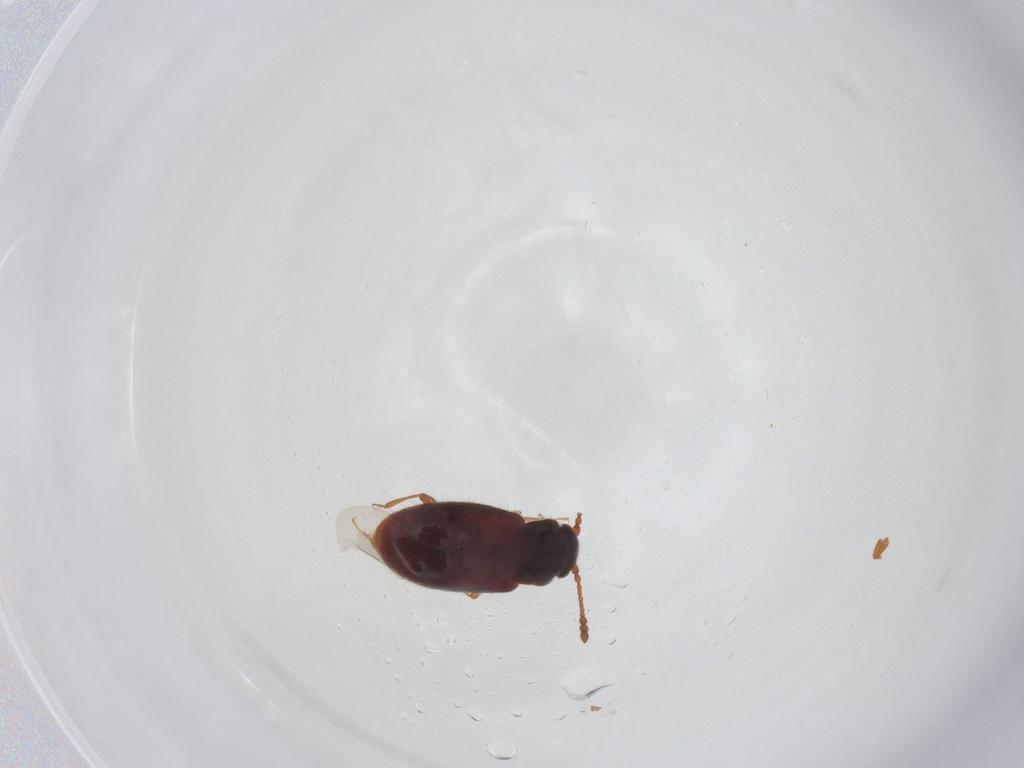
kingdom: Animalia
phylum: Arthropoda
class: Insecta
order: Coleoptera
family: Cryptophagidae
